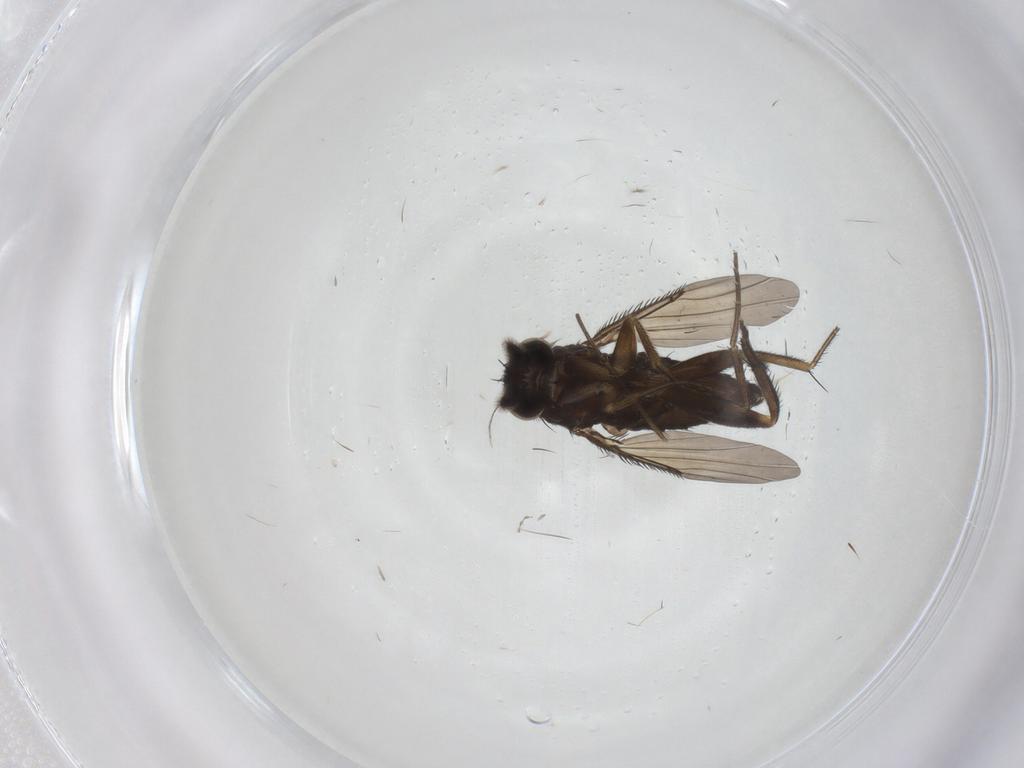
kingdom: Animalia
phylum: Arthropoda
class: Insecta
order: Diptera
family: Phoridae
